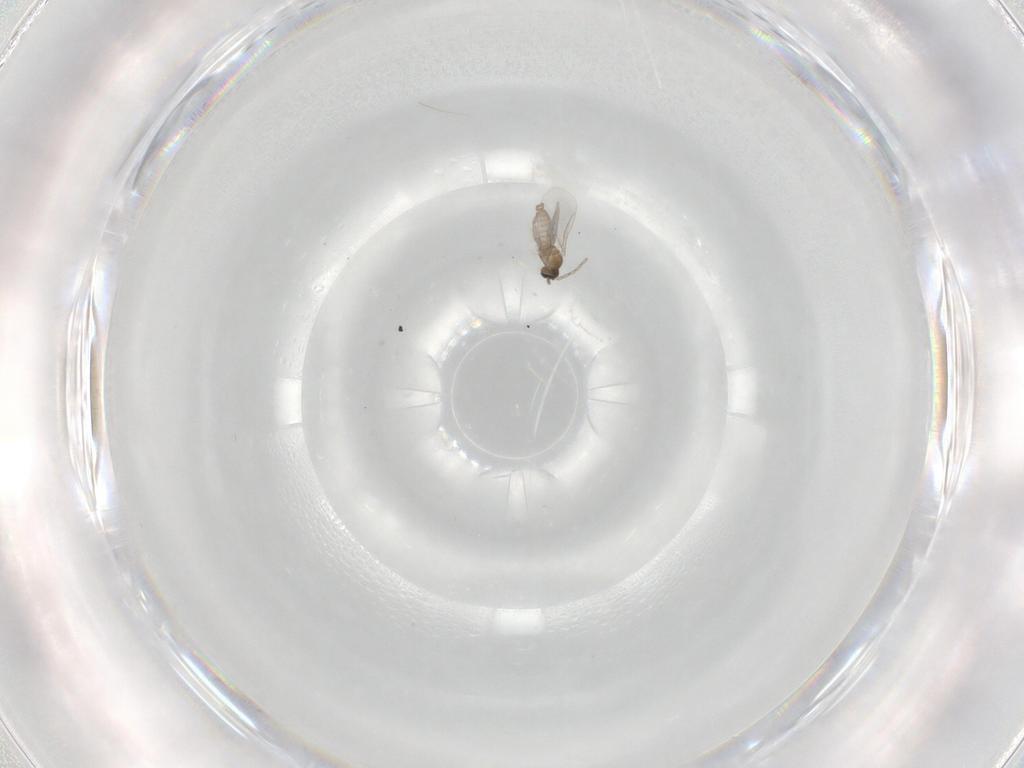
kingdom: Animalia
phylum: Arthropoda
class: Insecta
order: Diptera
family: Cecidomyiidae
